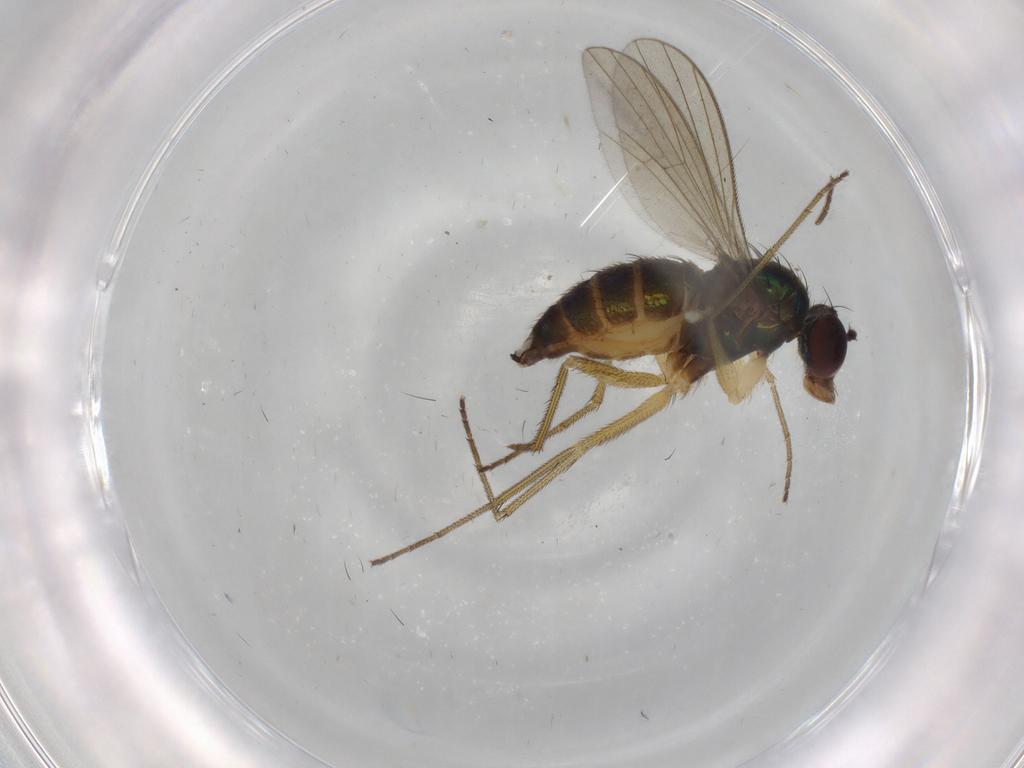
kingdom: Animalia
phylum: Arthropoda
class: Insecta
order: Diptera
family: Dolichopodidae
